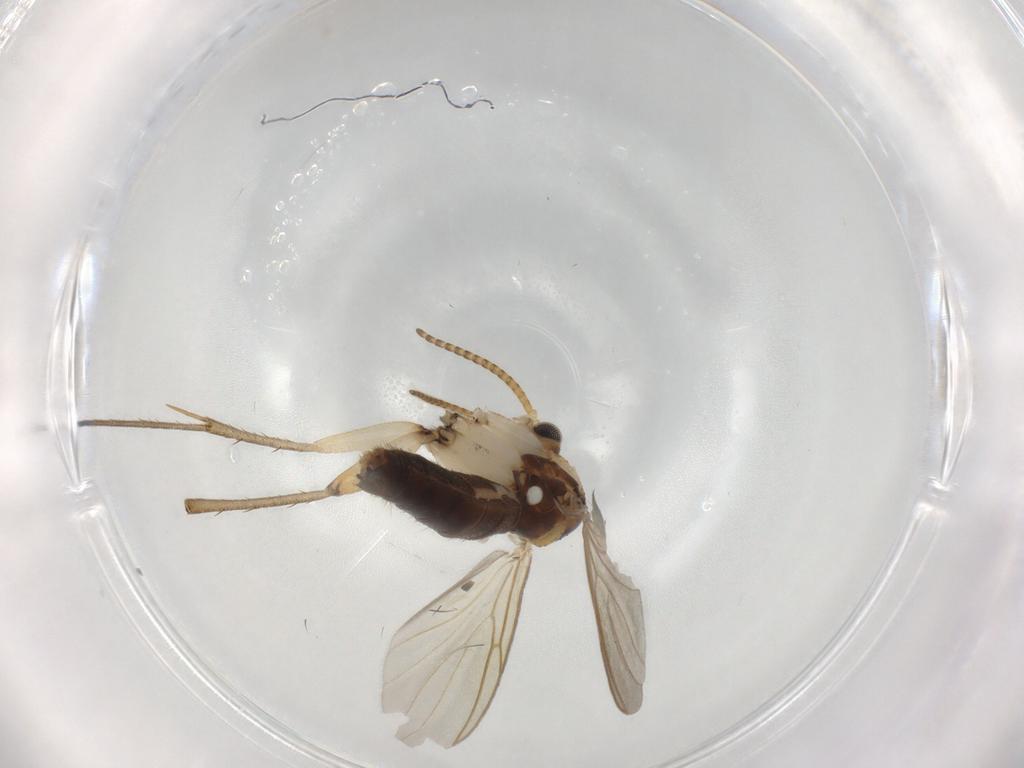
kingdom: Animalia
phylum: Arthropoda
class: Insecta
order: Diptera
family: Mycetophilidae
